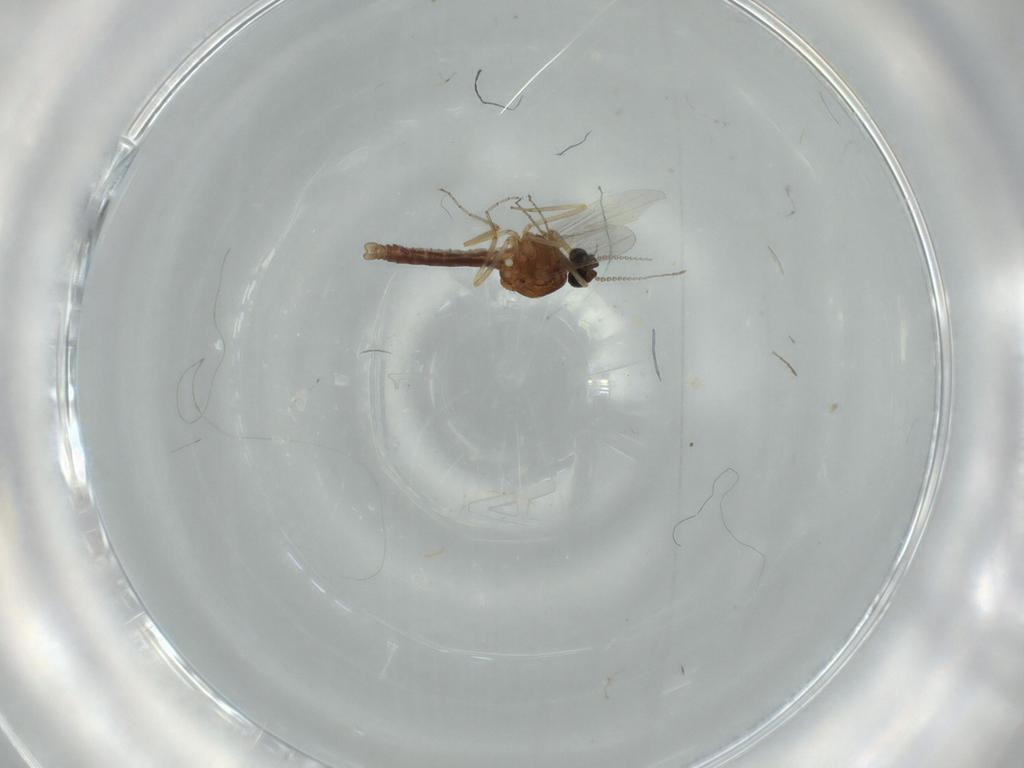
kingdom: Animalia
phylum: Arthropoda
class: Insecta
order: Diptera
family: Ceratopogonidae
